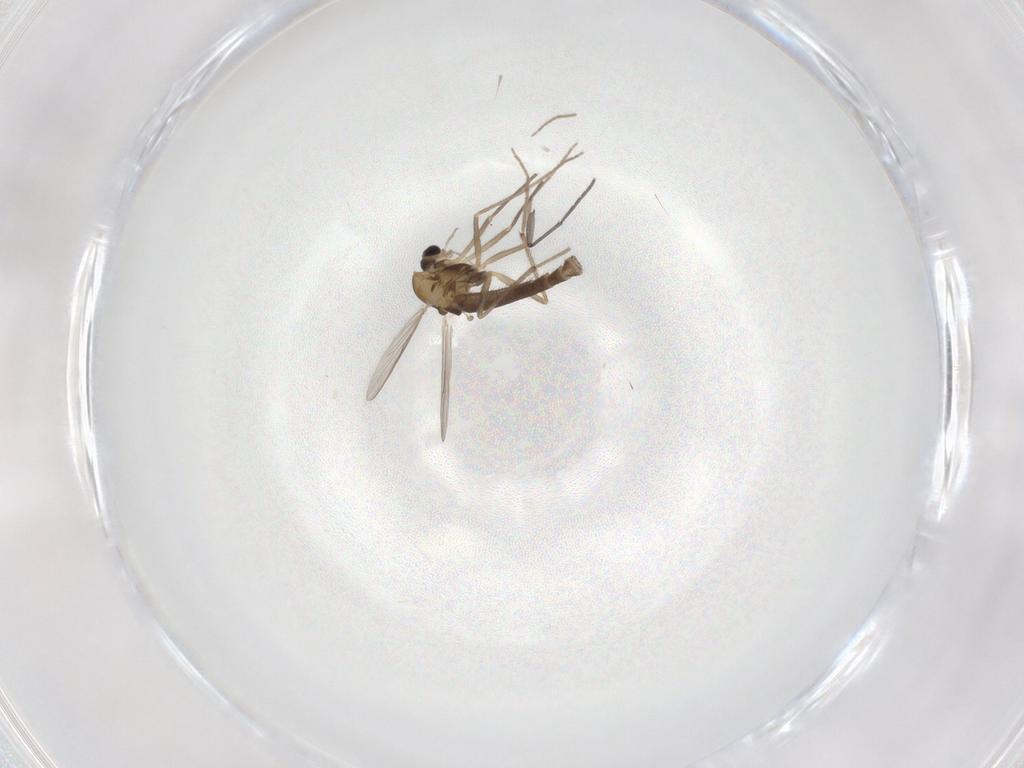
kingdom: Animalia
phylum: Arthropoda
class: Insecta
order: Diptera
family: Chironomidae
